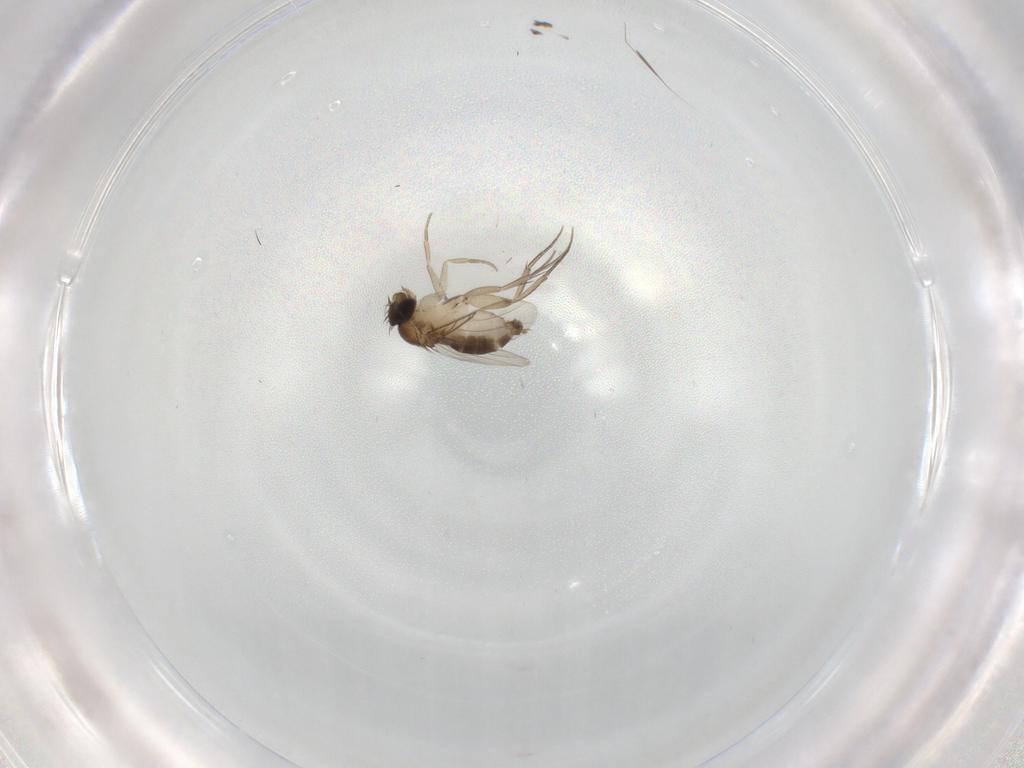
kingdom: Animalia
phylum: Arthropoda
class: Insecta
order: Diptera
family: Phoridae
